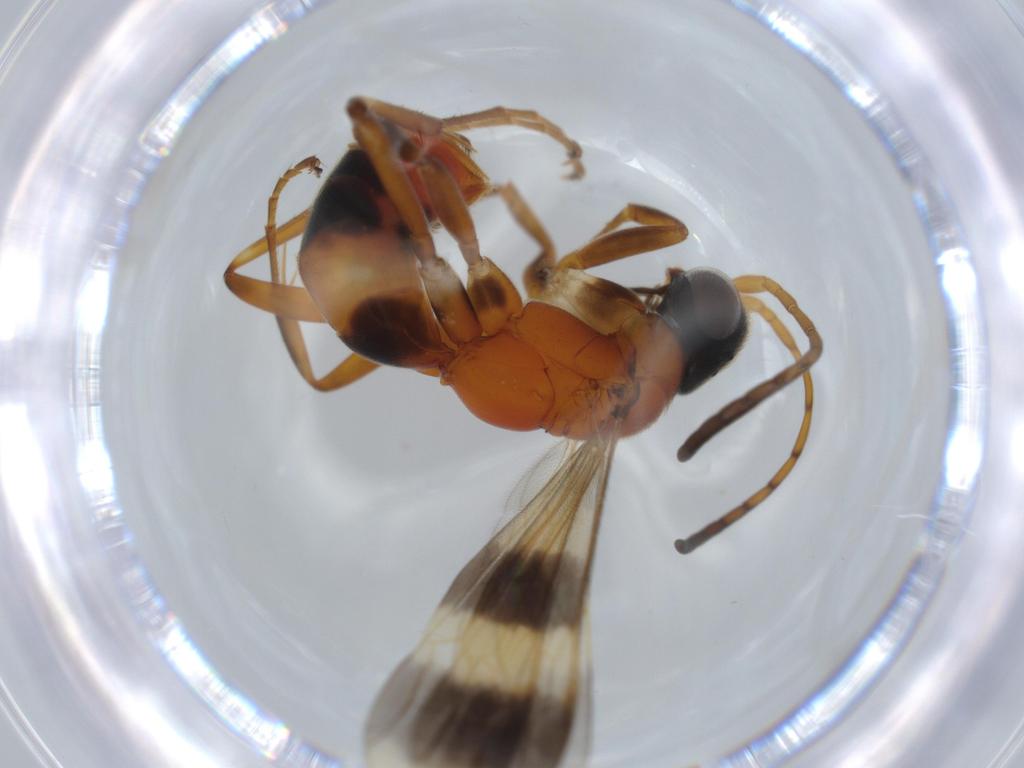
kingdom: Animalia
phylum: Arthropoda
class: Insecta
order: Hymenoptera
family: Pompilidae
